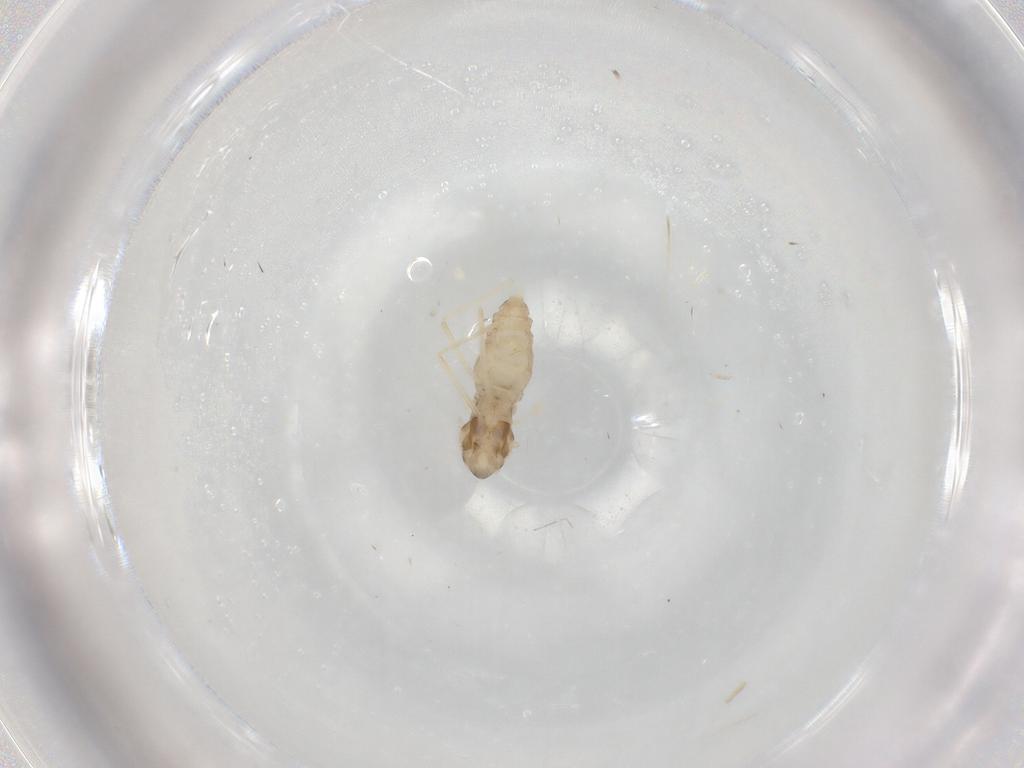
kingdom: Animalia
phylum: Arthropoda
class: Insecta
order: Diptera
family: Cecidomyiidae
